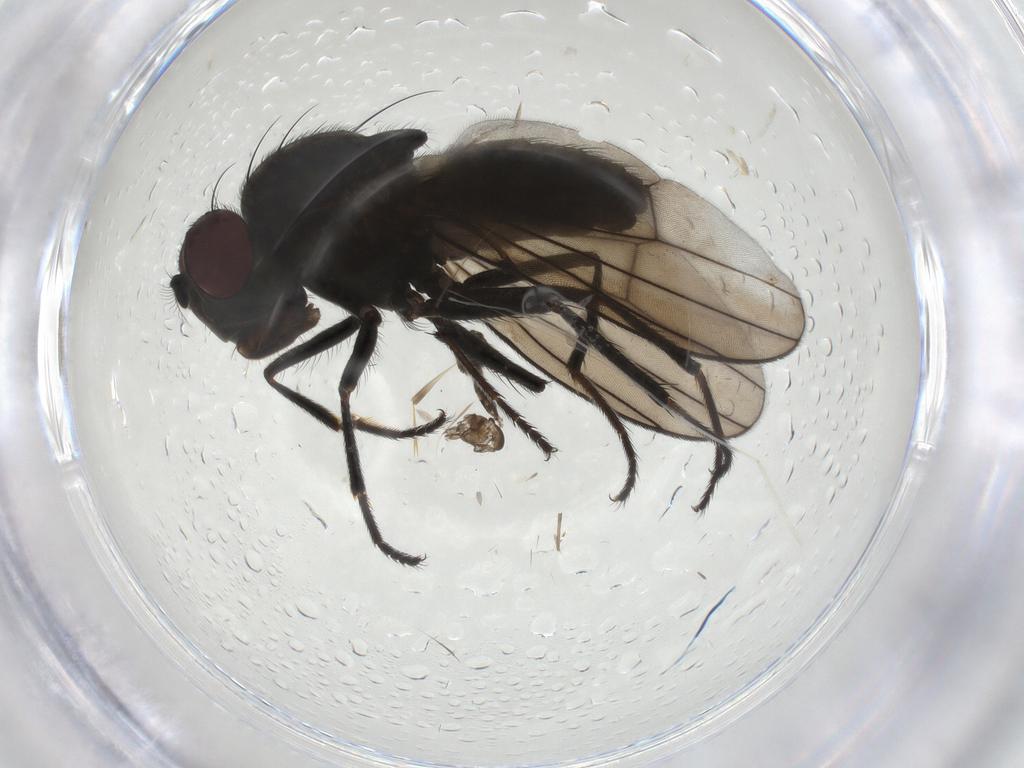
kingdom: Animalia
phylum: Arthropoda
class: Insecta
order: Diptera
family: Ephydridae
